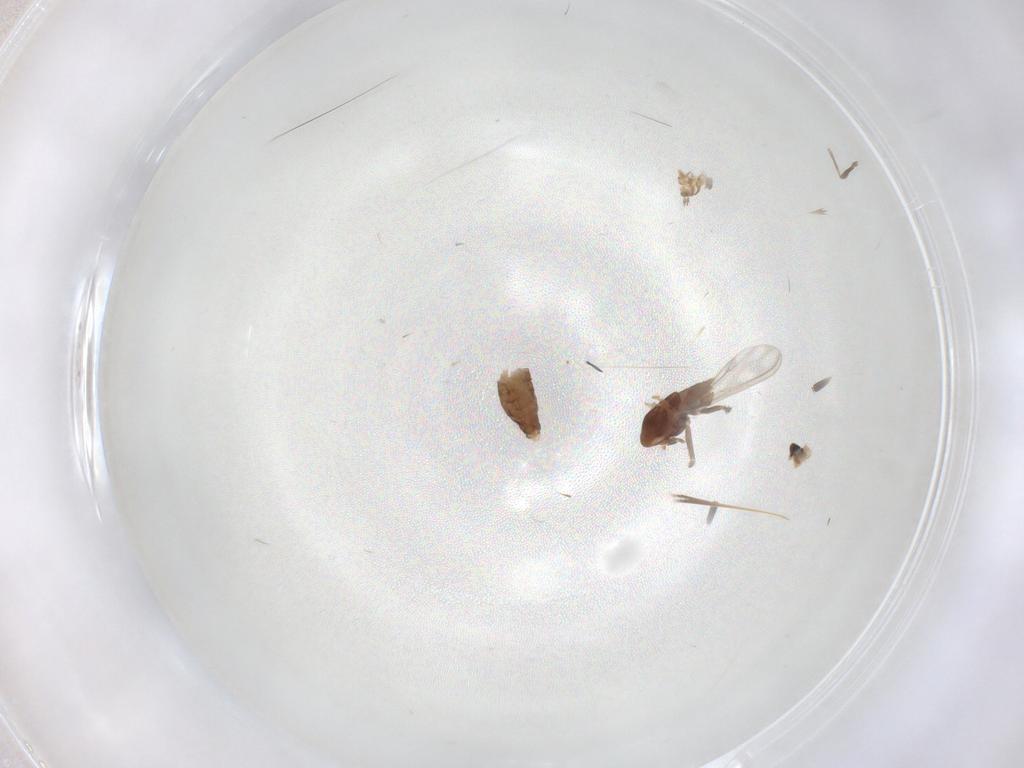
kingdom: Animalia
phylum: Arthropoda
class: Insecta
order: Diptera
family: Chironomidae
